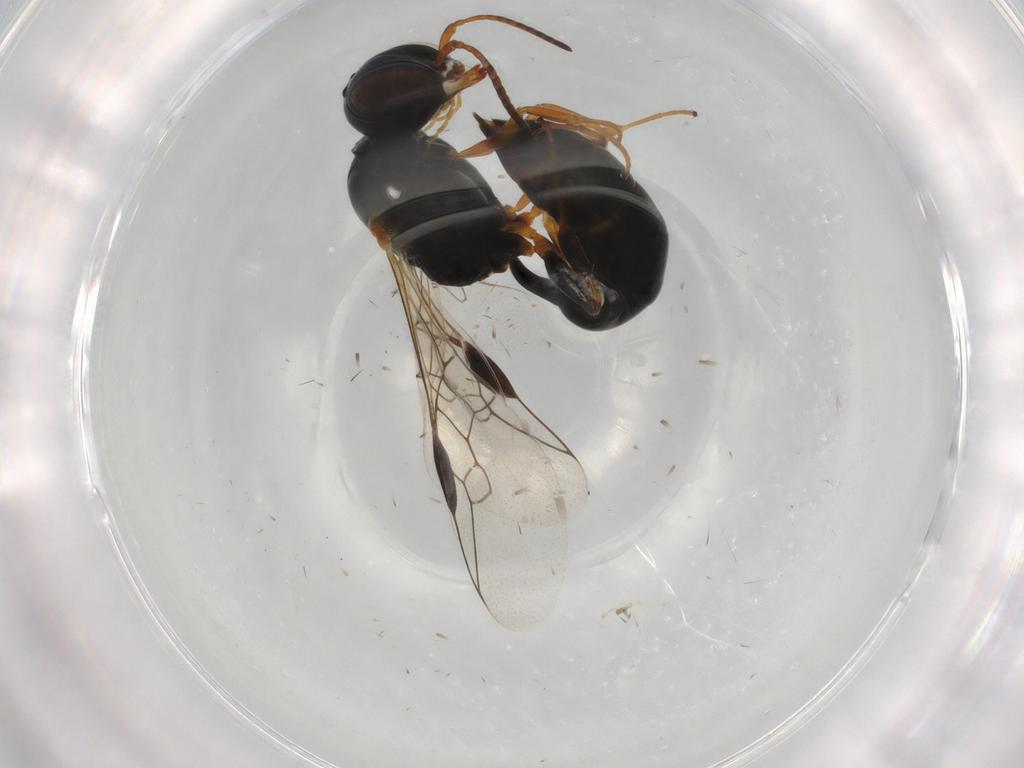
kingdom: Animalia
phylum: Arthropoda
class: Insecta
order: Hymenoptera
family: Crabronidae
